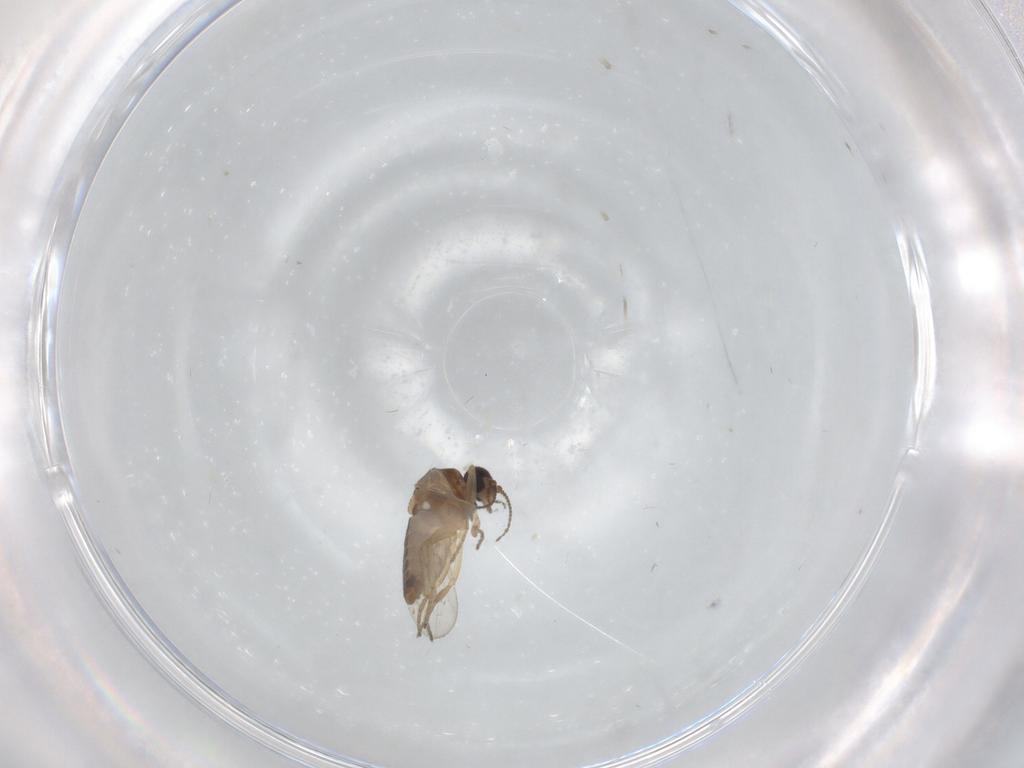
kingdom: Animalia
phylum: Arthropoda
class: Insecta
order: Diptera
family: Ceratopogonidae
